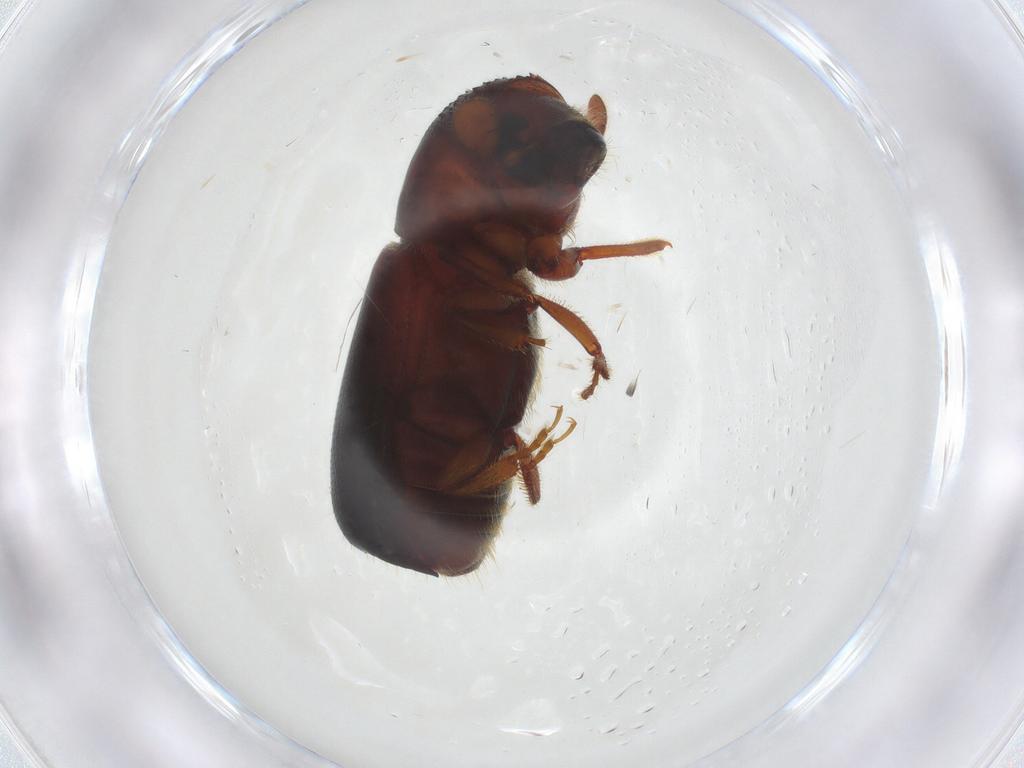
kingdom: Animalia
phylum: Arthropoda
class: Insecta
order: Coleoptera
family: Curculionidae
